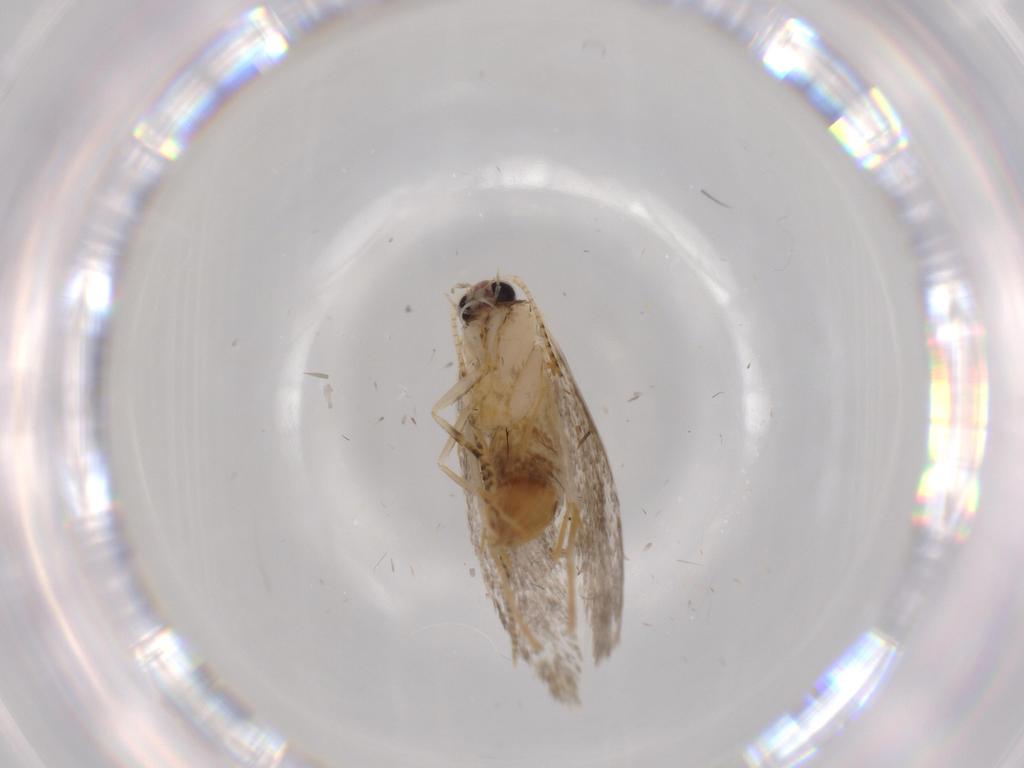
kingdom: Animalia
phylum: Arthropoda
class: Insecta
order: Lepidoptera
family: Tineidae
